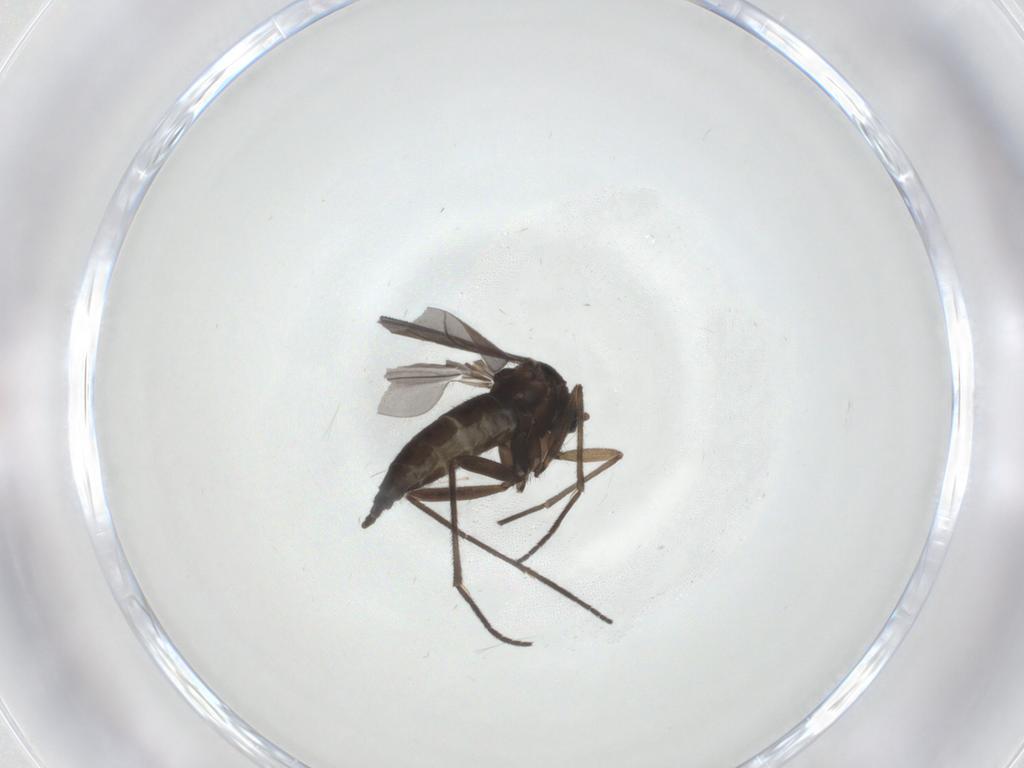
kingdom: Animalia
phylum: Arthropoda
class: Insecta
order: Diptera
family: Sciaridae
